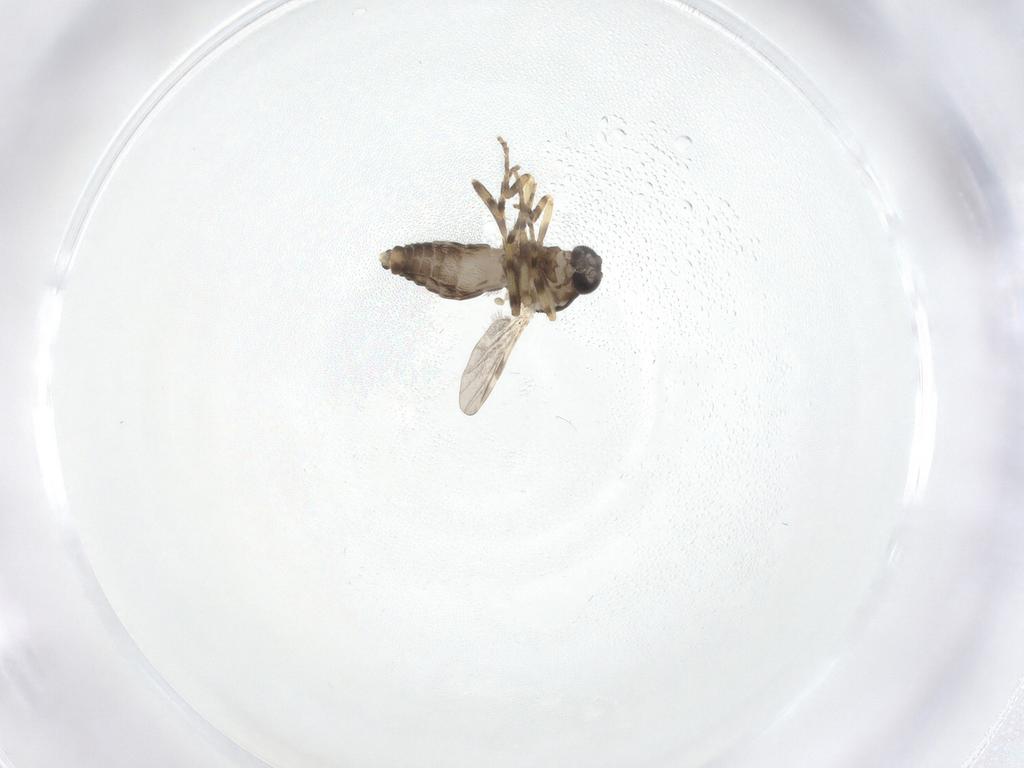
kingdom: Animalia
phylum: Arthropoda
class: Insecta
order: Diptera
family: Ceratopogonidae
